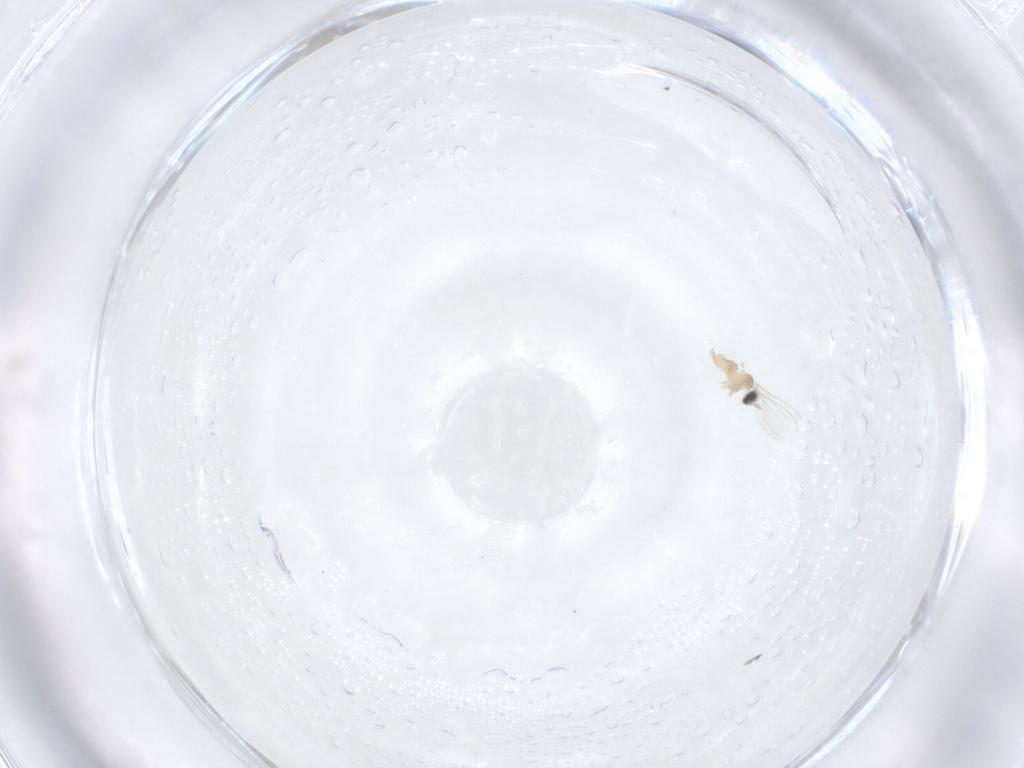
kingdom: Animalia
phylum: Arthropoda
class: Insecta
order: Diptera
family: Cecidomyiidae
